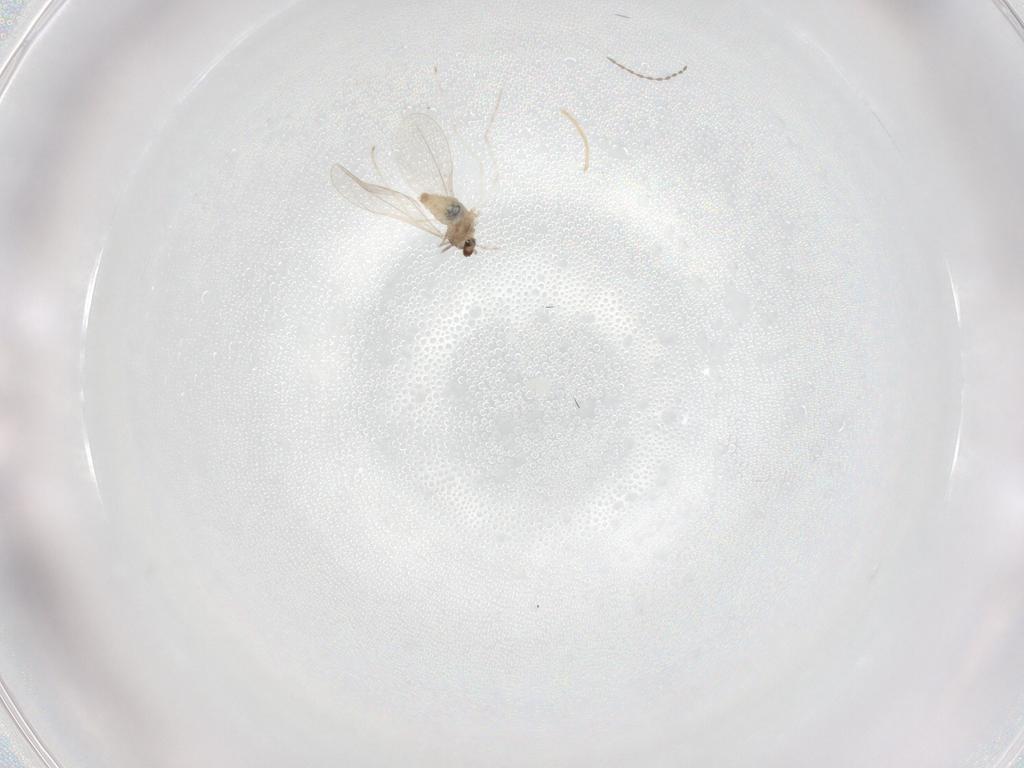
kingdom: Animalia
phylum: Arthropoda
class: Insecta
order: Diptera
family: Cecidomyiidae
